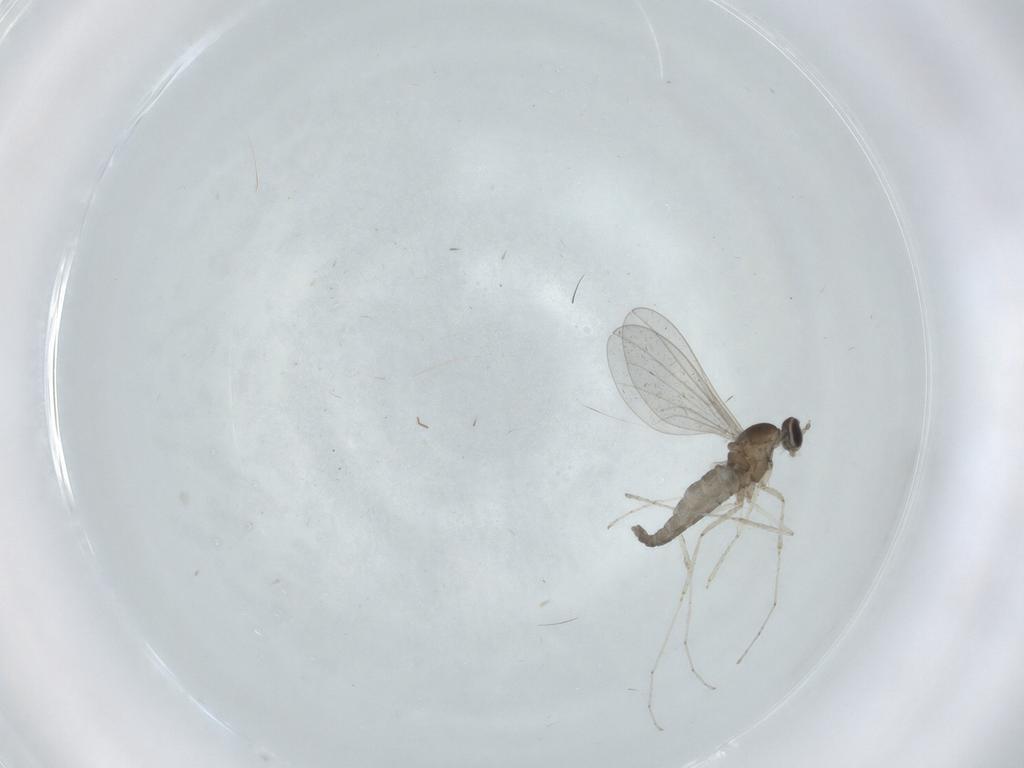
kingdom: Animalia
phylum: Arthropoda
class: Insecta
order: Diptera
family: Cecidomyiidae
